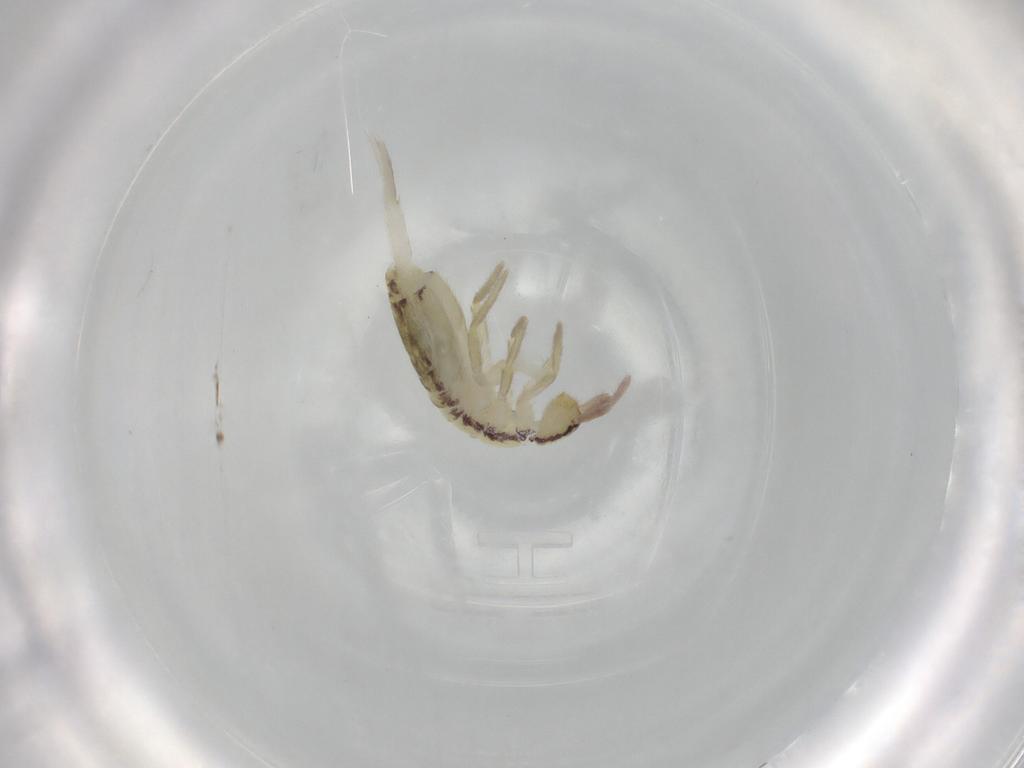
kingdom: Animalia
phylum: Arthropoda
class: Collembola
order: Entomobryomorpha
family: Entomobryidae
